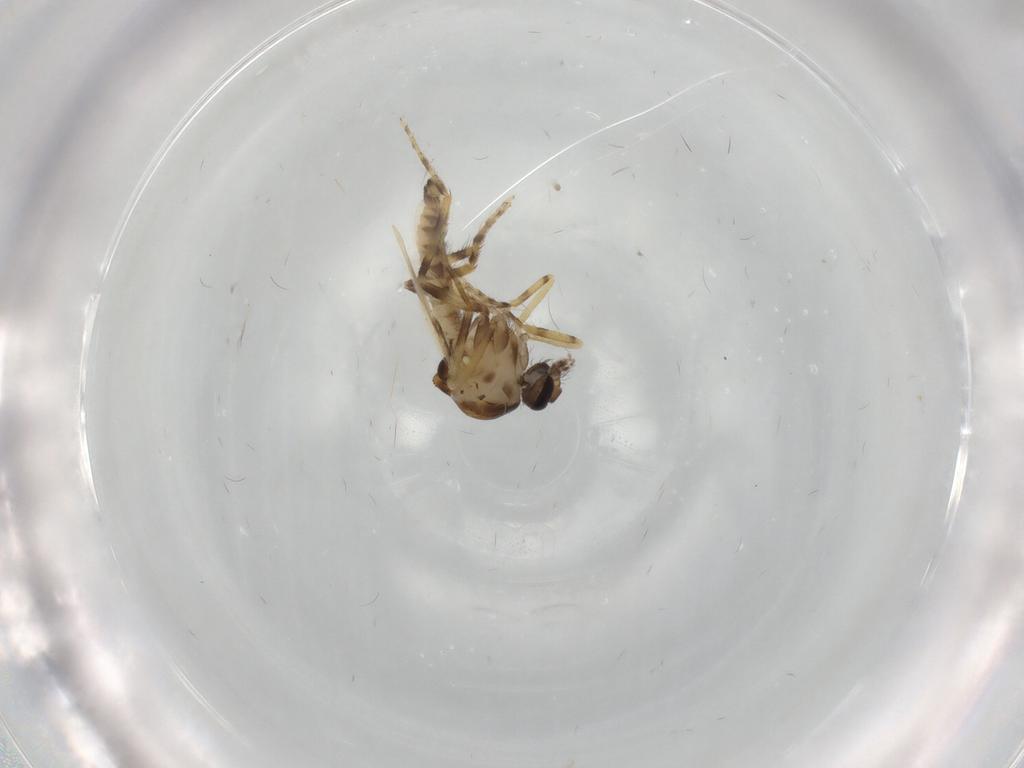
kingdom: Animalia
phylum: Arthropoda
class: Insecta
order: Diptera
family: Ceratopogonidae
